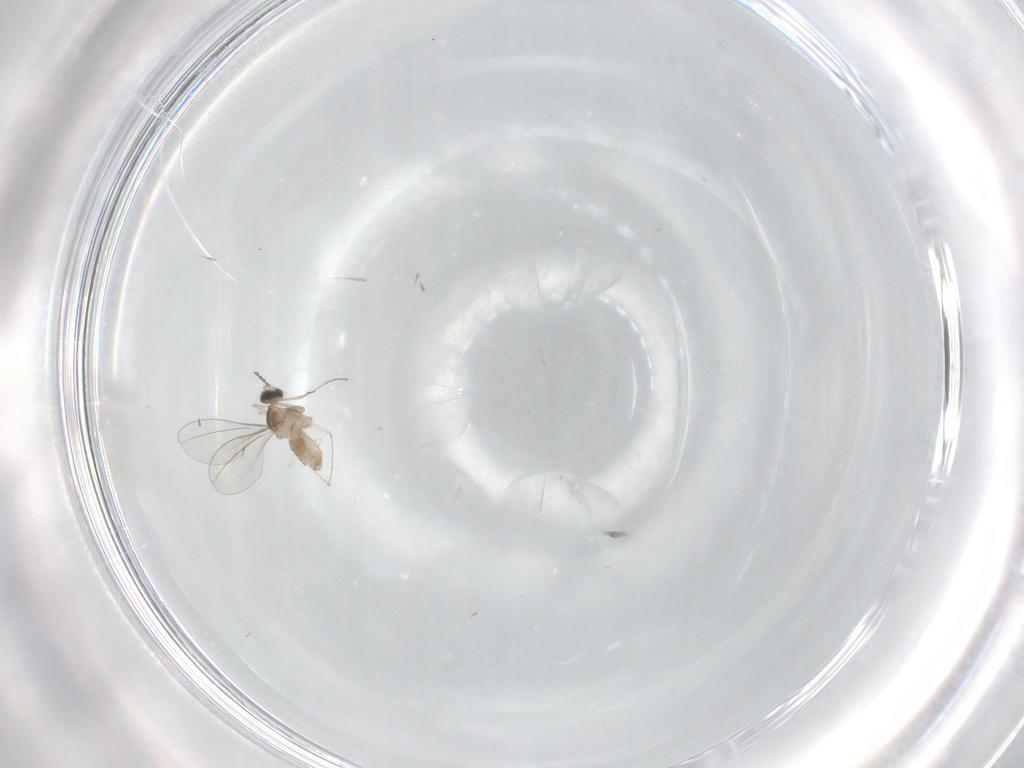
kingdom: Animalia
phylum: Arthropoda
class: Insecta
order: Diptera
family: Cecidomyiidae
